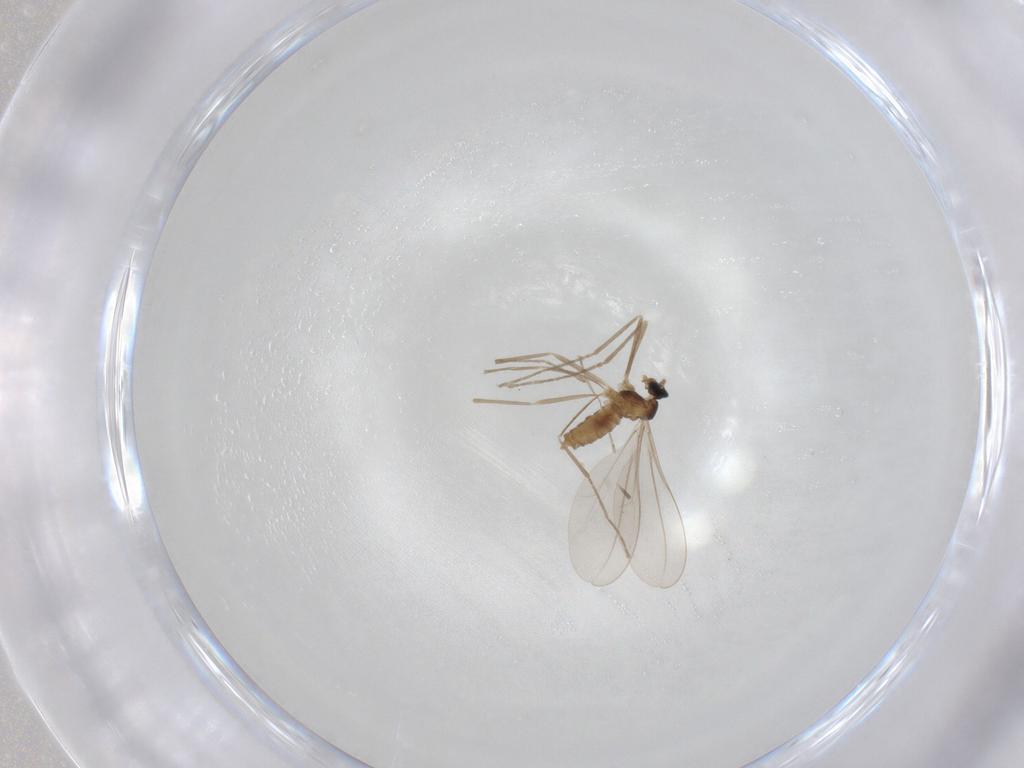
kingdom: Animalia
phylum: Arthropoda
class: Insecta
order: Diptera
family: Cecidomyiidae
